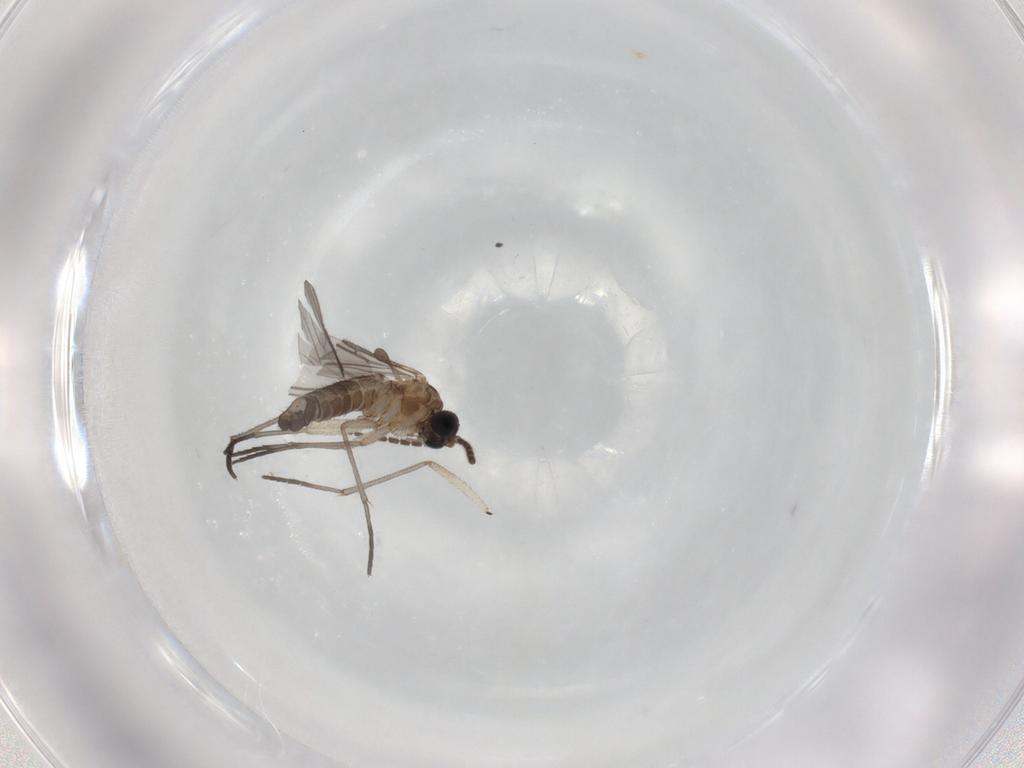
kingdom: Animalia
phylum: Arthropoda
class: Insecta
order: Diptera
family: Sciaridae
